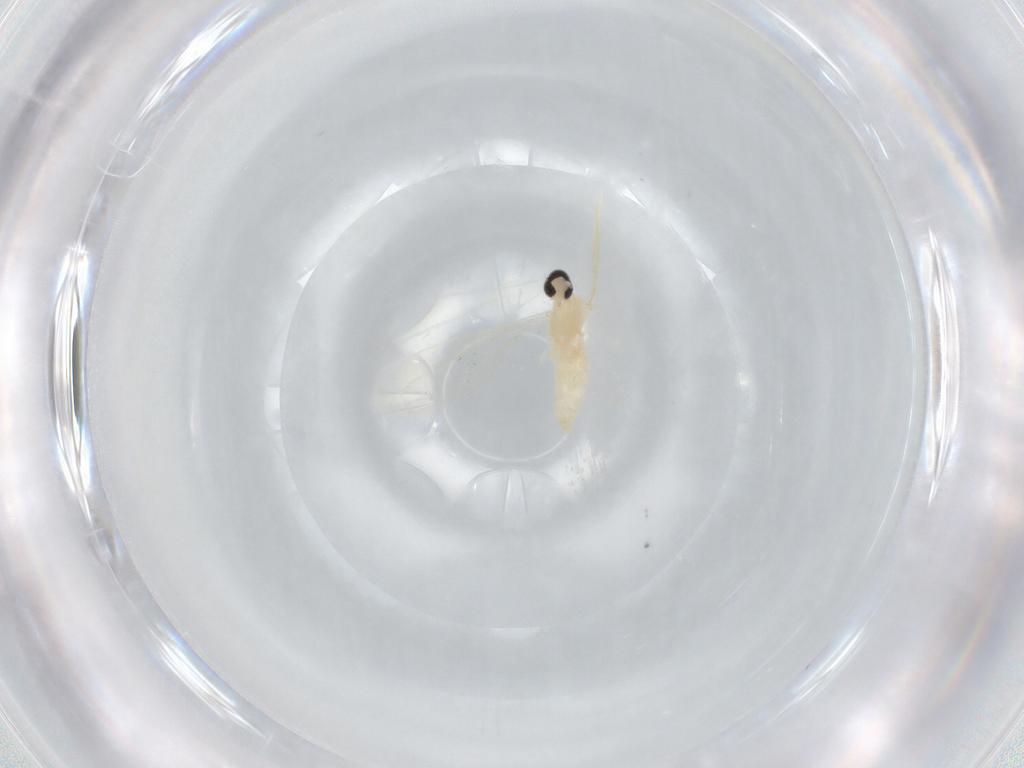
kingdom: Animalia
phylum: Arthropoda
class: Insecta
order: Diptera
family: Cecidomyiidae
